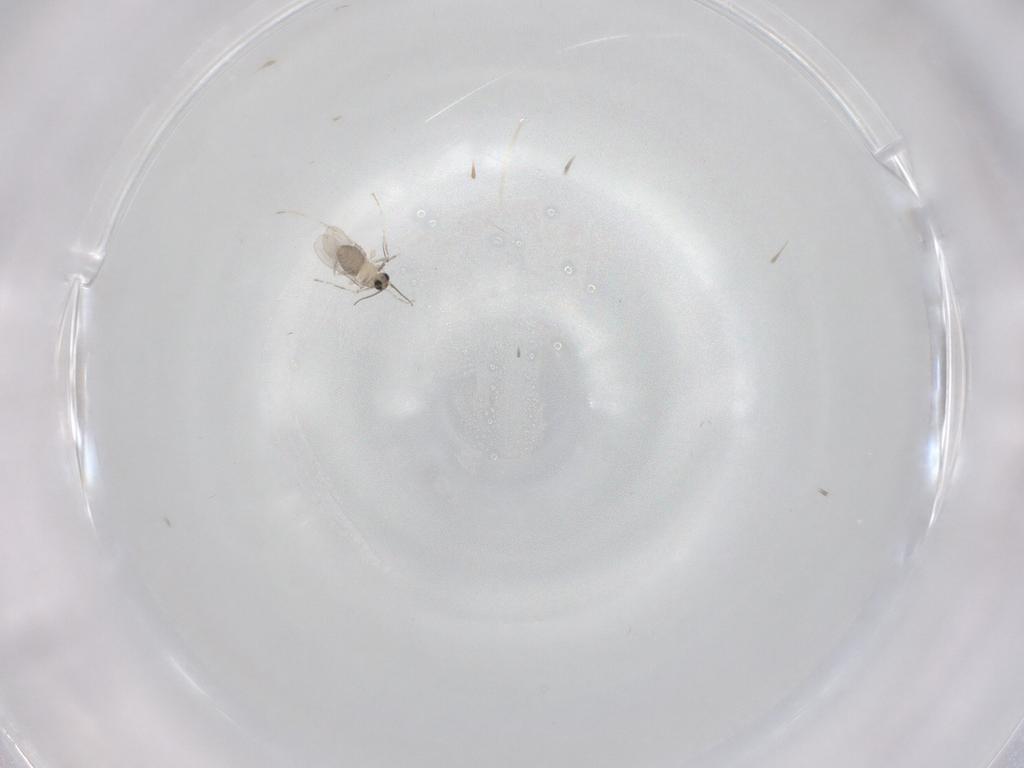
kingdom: Animalia
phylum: Arthropoda
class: Insecta
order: Diptera
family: Cecidomyiidae
